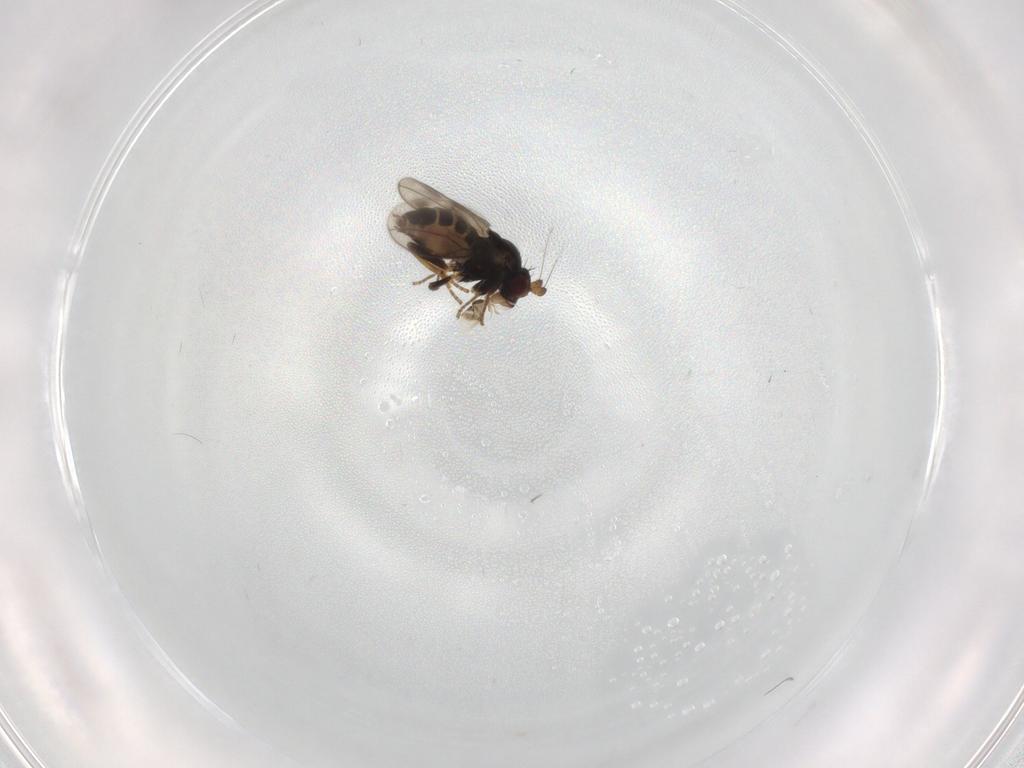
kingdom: Animalia
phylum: Arthropoda
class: Insecta
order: Diptera
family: Sphaeroceridae
